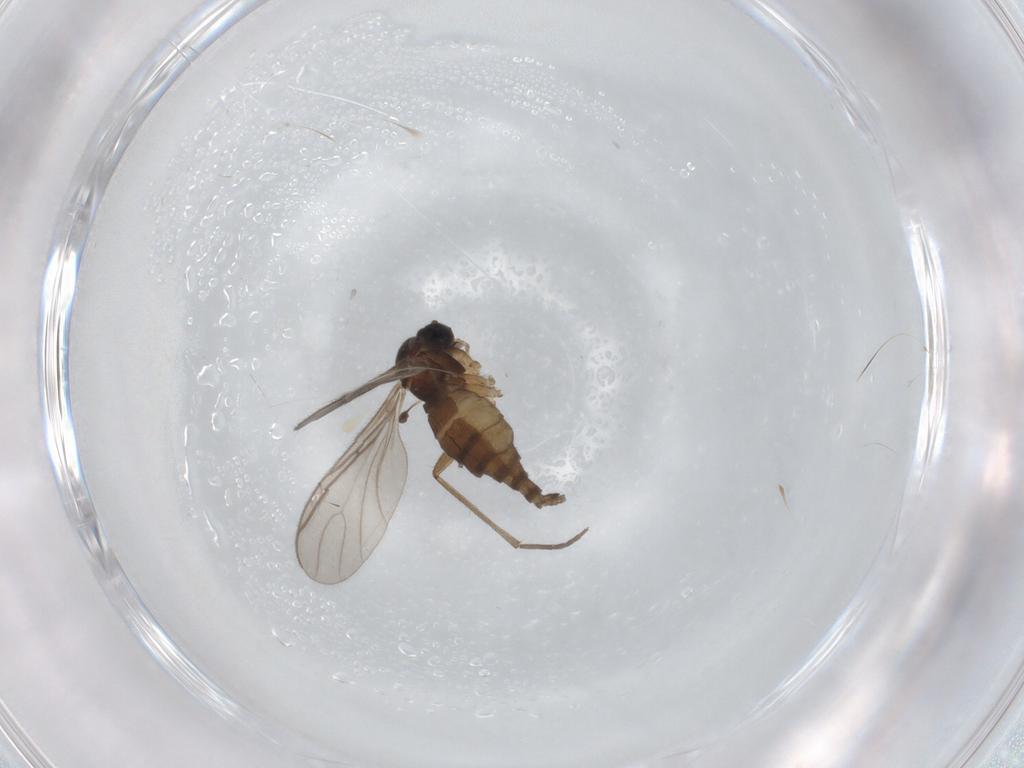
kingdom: Animalia
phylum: Arthropoda
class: Insecta
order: Diptera
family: Sciaridae
